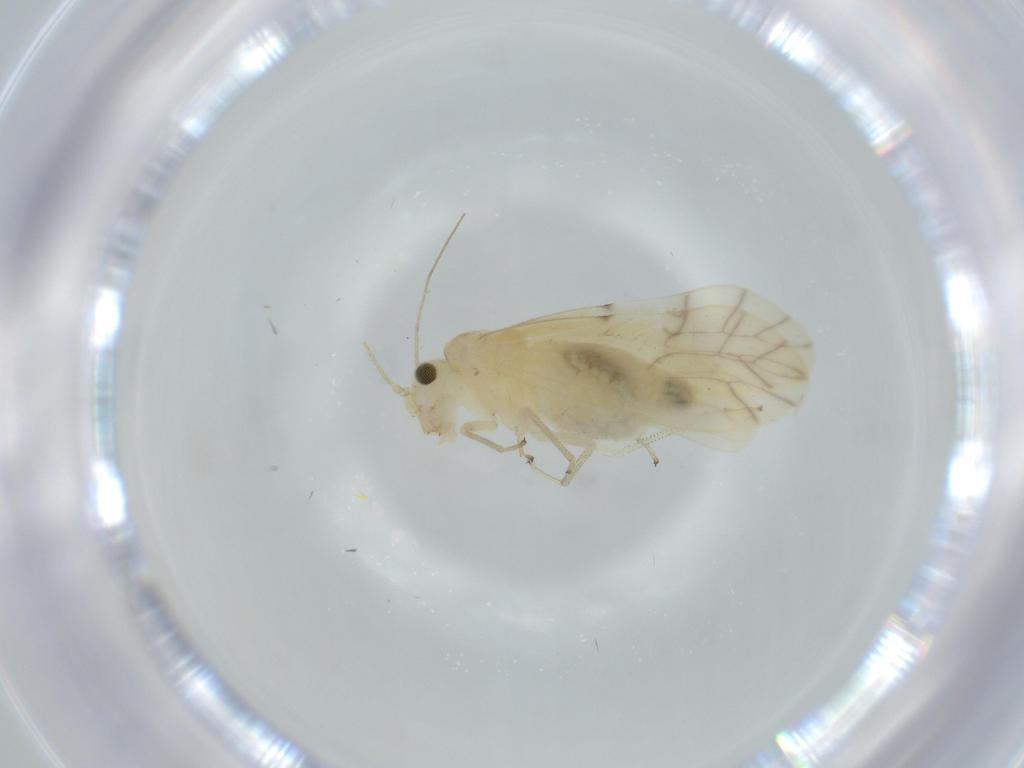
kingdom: Animalia
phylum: Arthropoda
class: Insecta
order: Psocodea
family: Caeciliusidae
